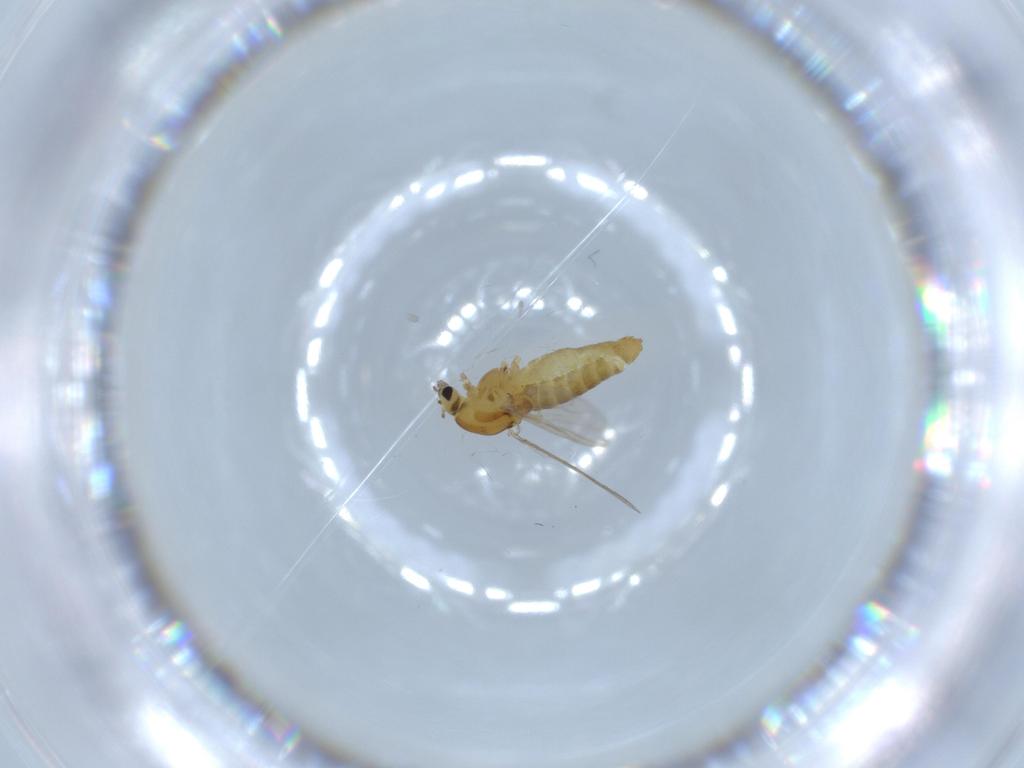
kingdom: Animalia
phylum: Arthropoda
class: Insecta
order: Diptera
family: Chironomidae
